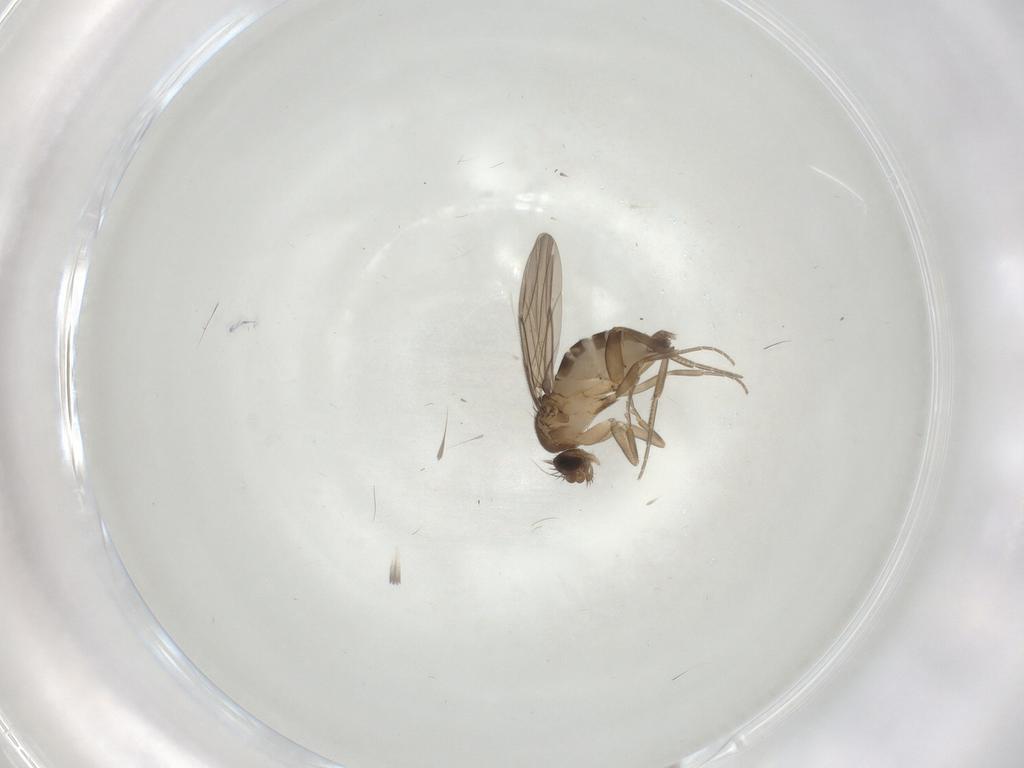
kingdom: Animalia
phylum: Arthropoda
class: Insecta
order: Diptera
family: Phoridae
